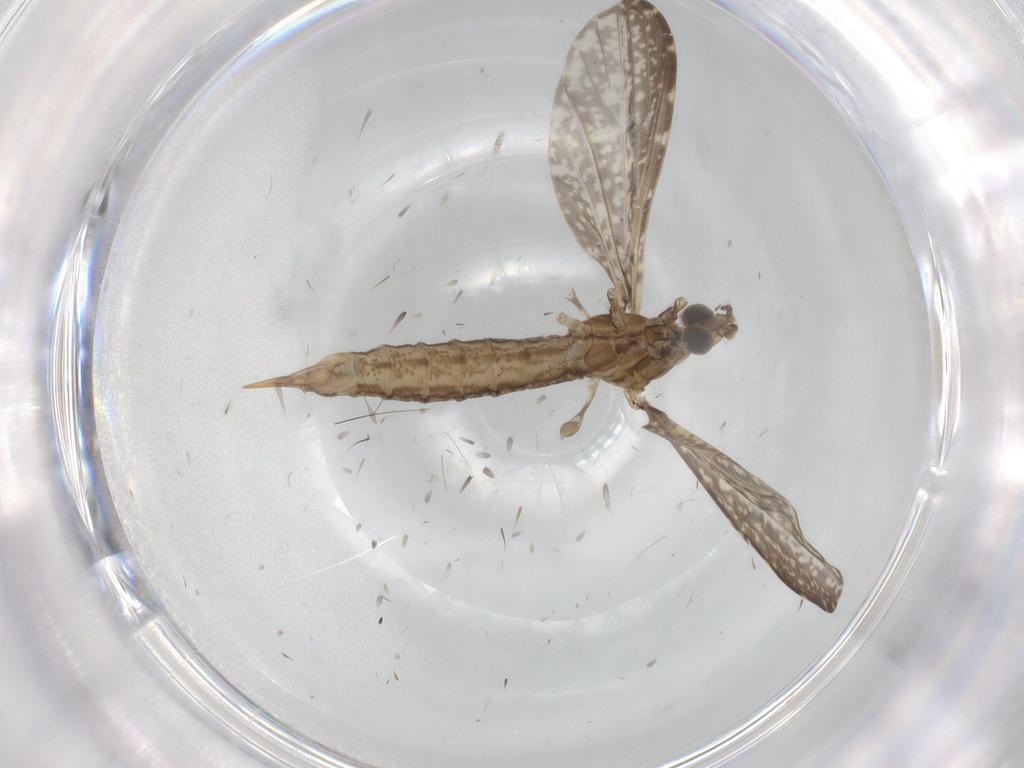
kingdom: Animalia
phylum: Arthropoda
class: Insecta
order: Diptera
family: Limoniidae
